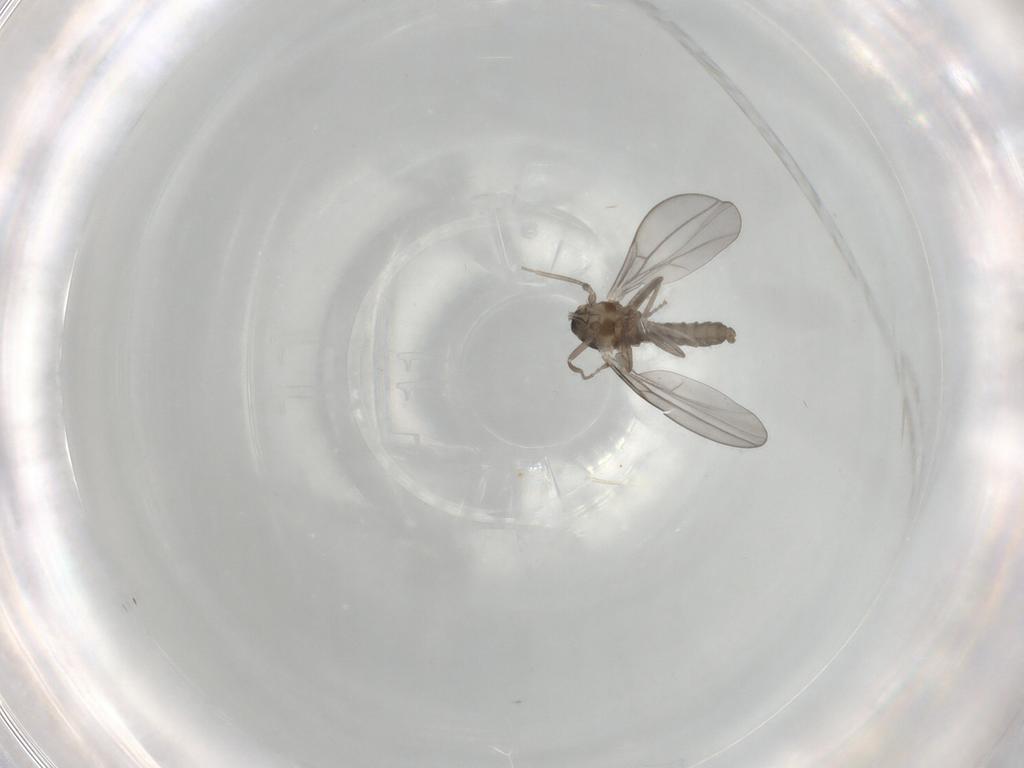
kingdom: Animalia
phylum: Arthropoda
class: Insecta
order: Diptera
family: Cecidomyiidae
